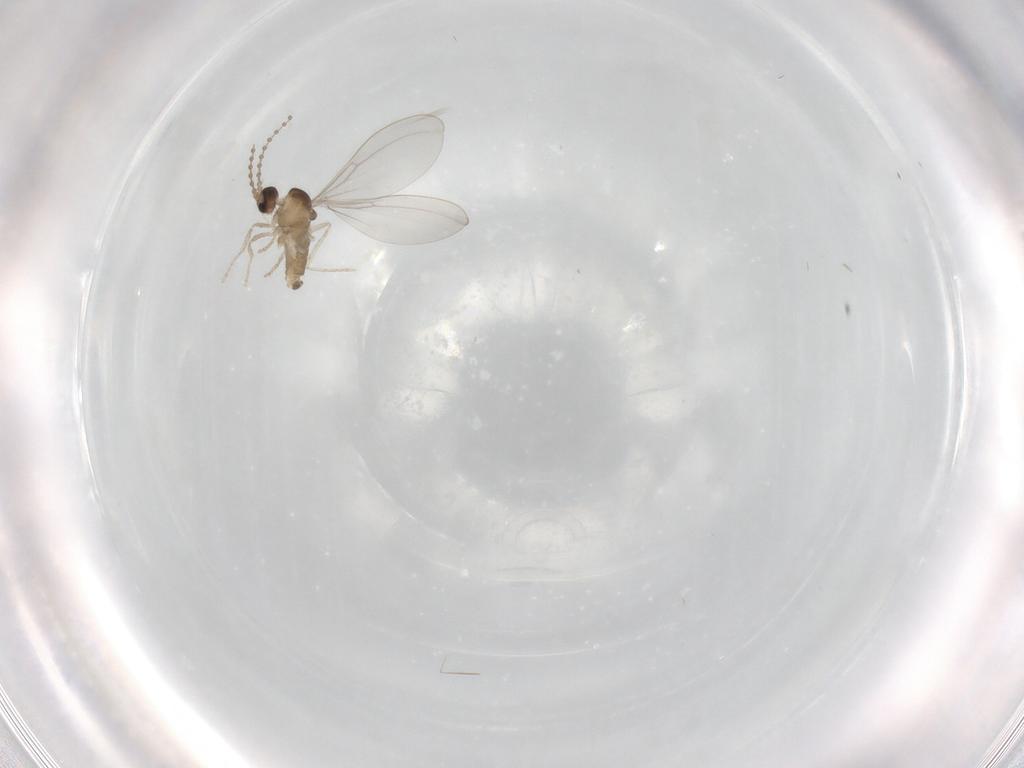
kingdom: Animalia
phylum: Arthropoda
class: Insecta
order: Diptera
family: Cecidomyiidae
